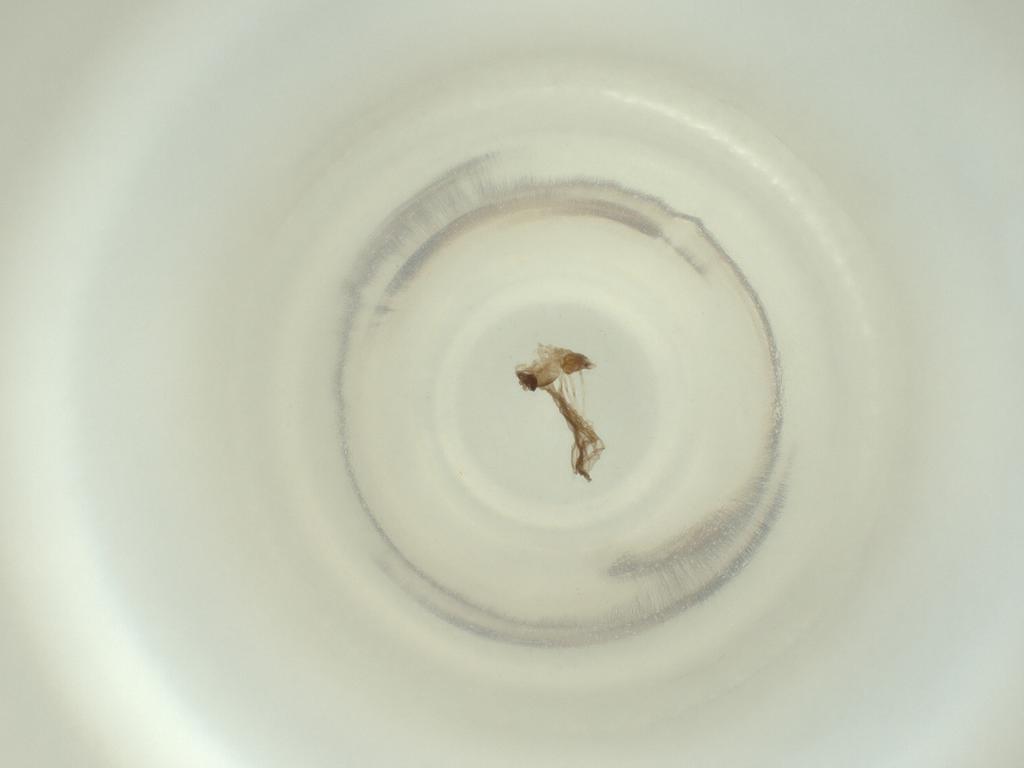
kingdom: Animalia
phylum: Arthropoda
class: Insecta
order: Diptera
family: Cecidomyiidae
